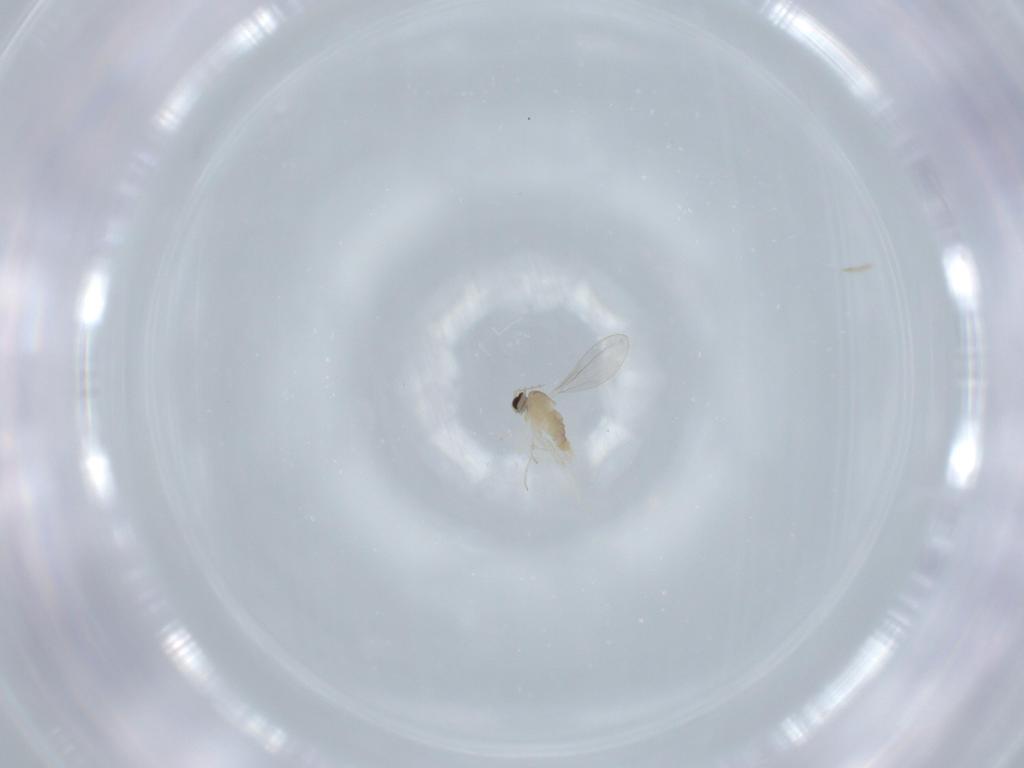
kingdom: Animalia
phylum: Arthropoda
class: Insecta
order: Diptera
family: Cecidomyiidae
